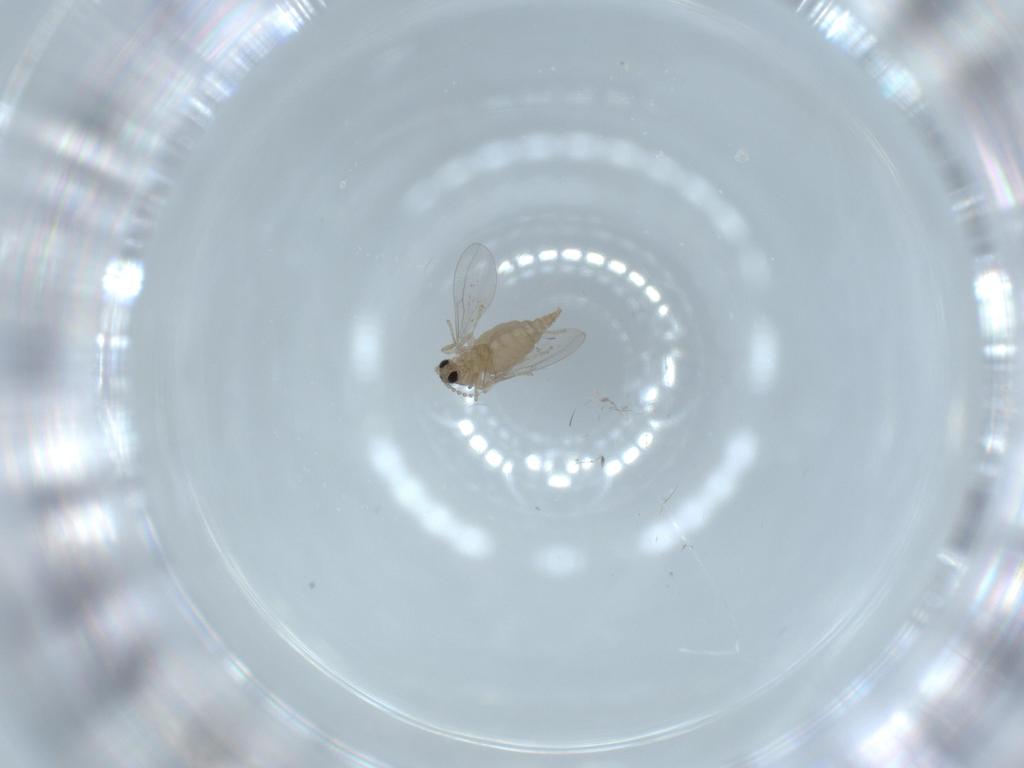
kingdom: Animalia
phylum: Arthropoda
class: Insecta
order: Diptera
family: Cecidomyiidae
